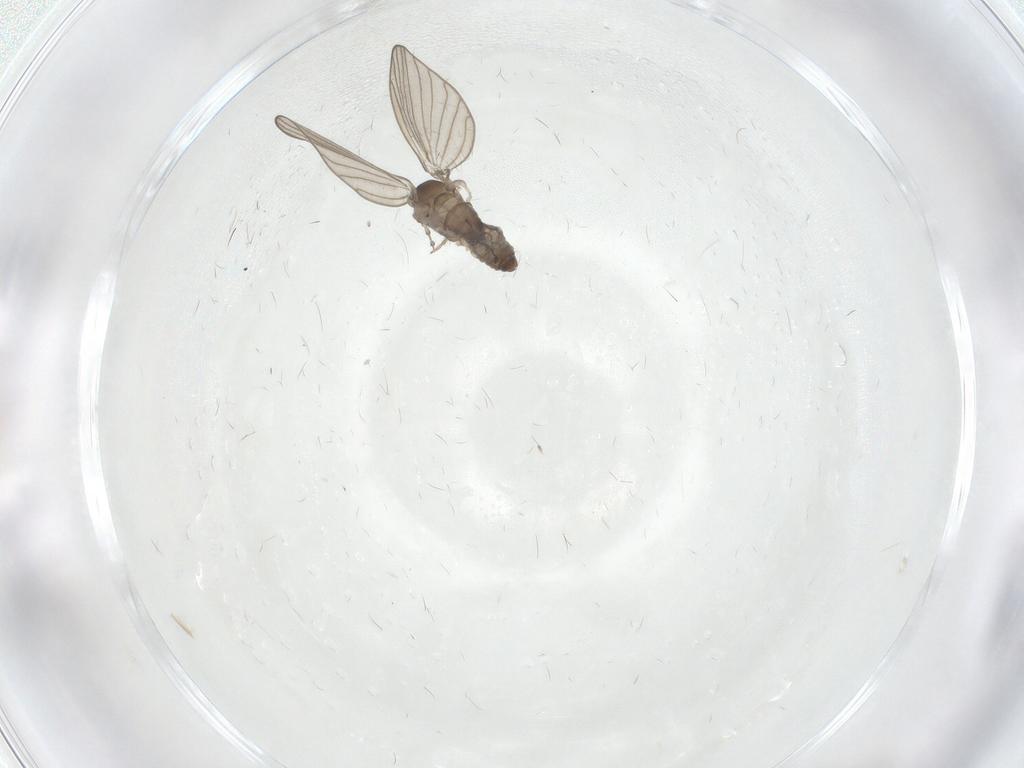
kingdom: Animalia
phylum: Arthropoda
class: Insecta
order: Diptera
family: Psychodidae
